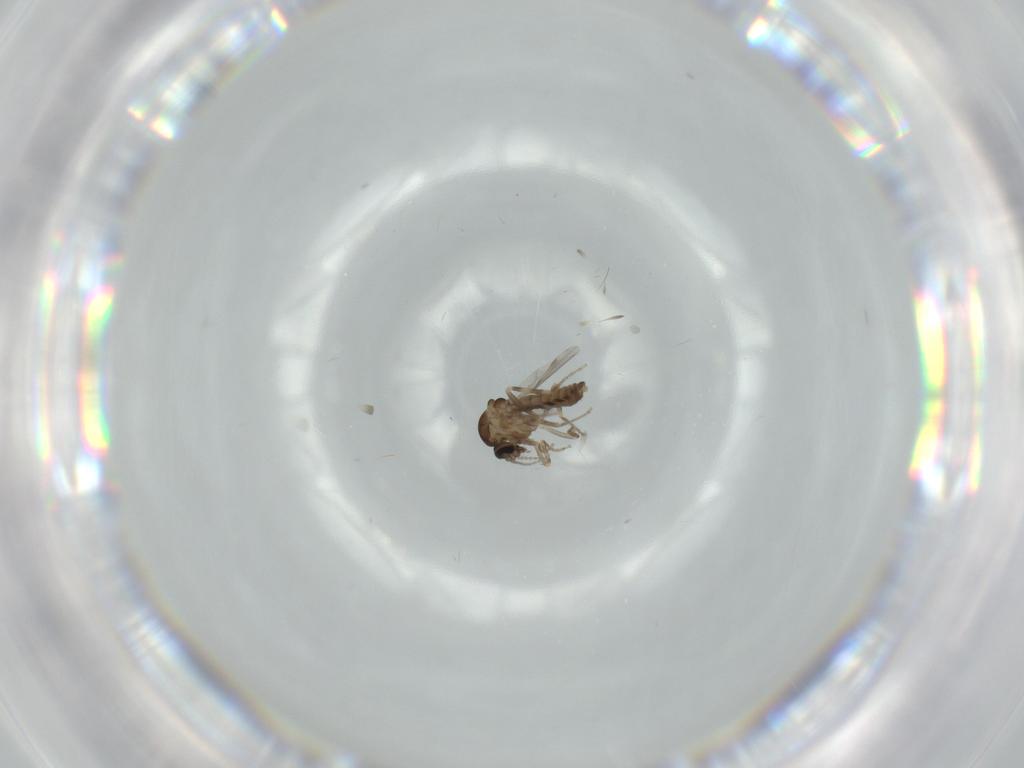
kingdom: Animalia
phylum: Arthropoda
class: Insecta
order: Diptera
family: Ceratopogonidae
